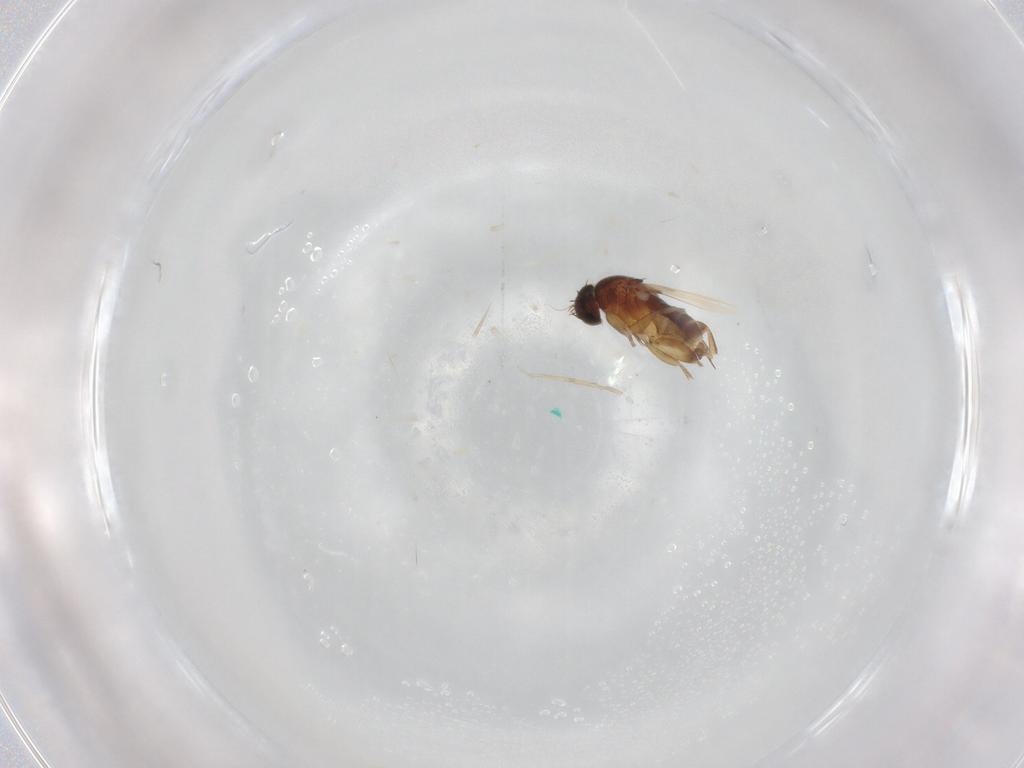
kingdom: Animalia
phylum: Arthropoda
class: Insecta
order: Diptera
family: Phoridae
